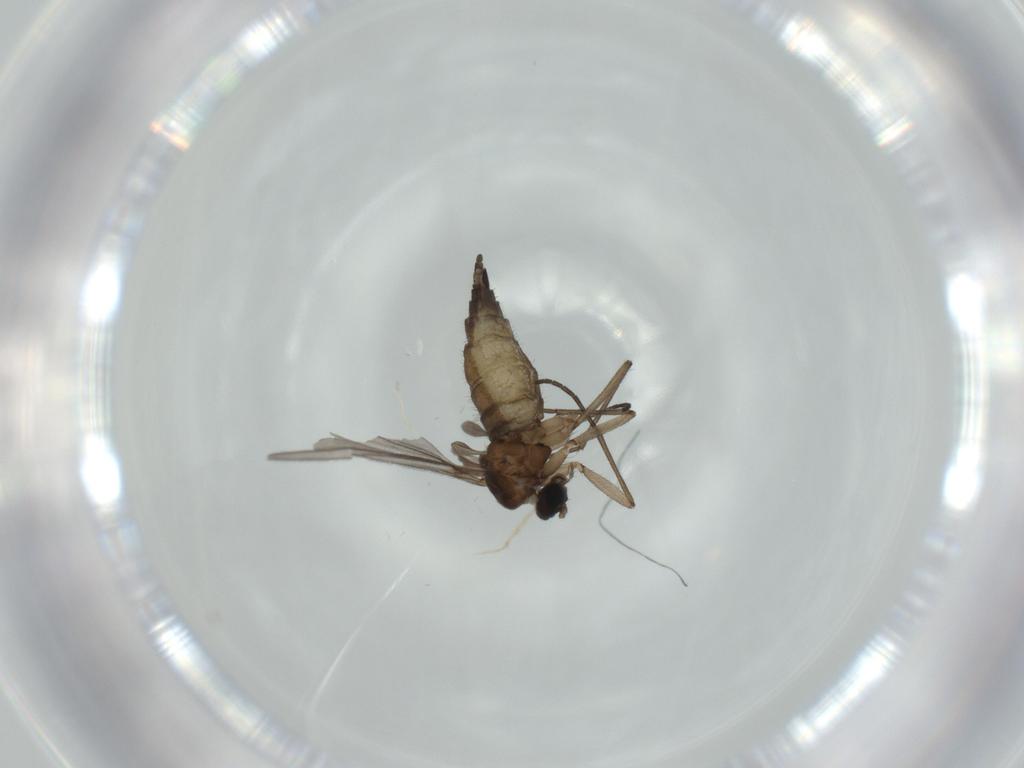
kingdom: Animalia
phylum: Arthropoda
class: Insecta
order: Diptera
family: Sciaridae
